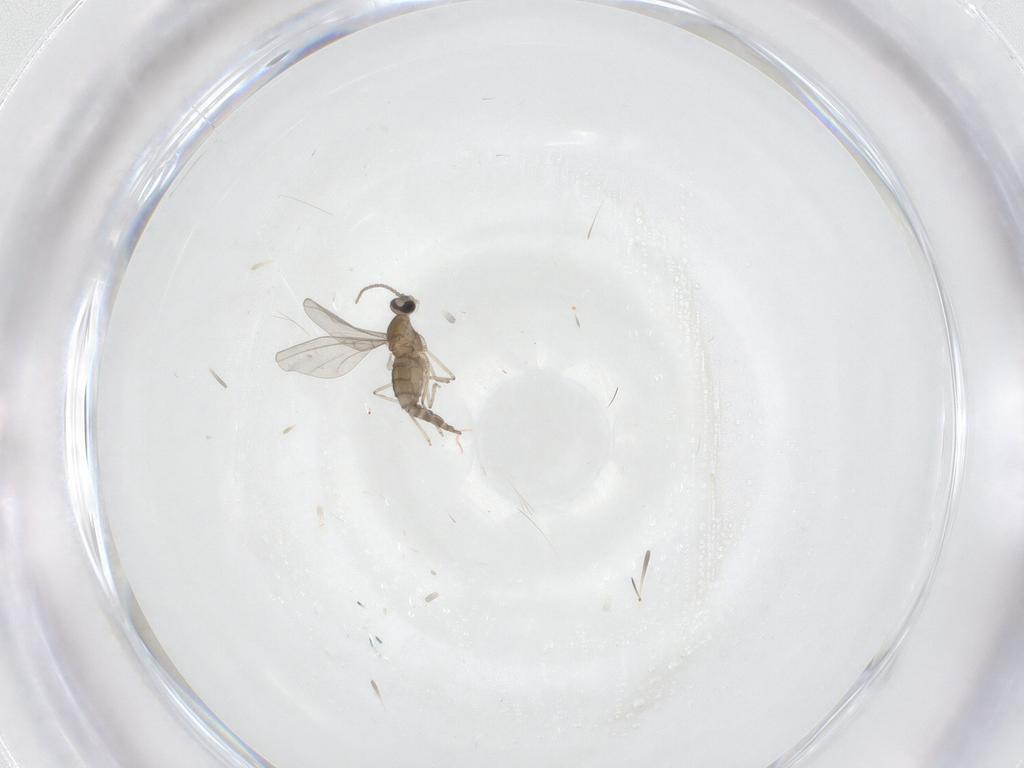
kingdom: Animalia
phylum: Arthropoda
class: Insecta
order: Diptera
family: Cecidomyiidae
